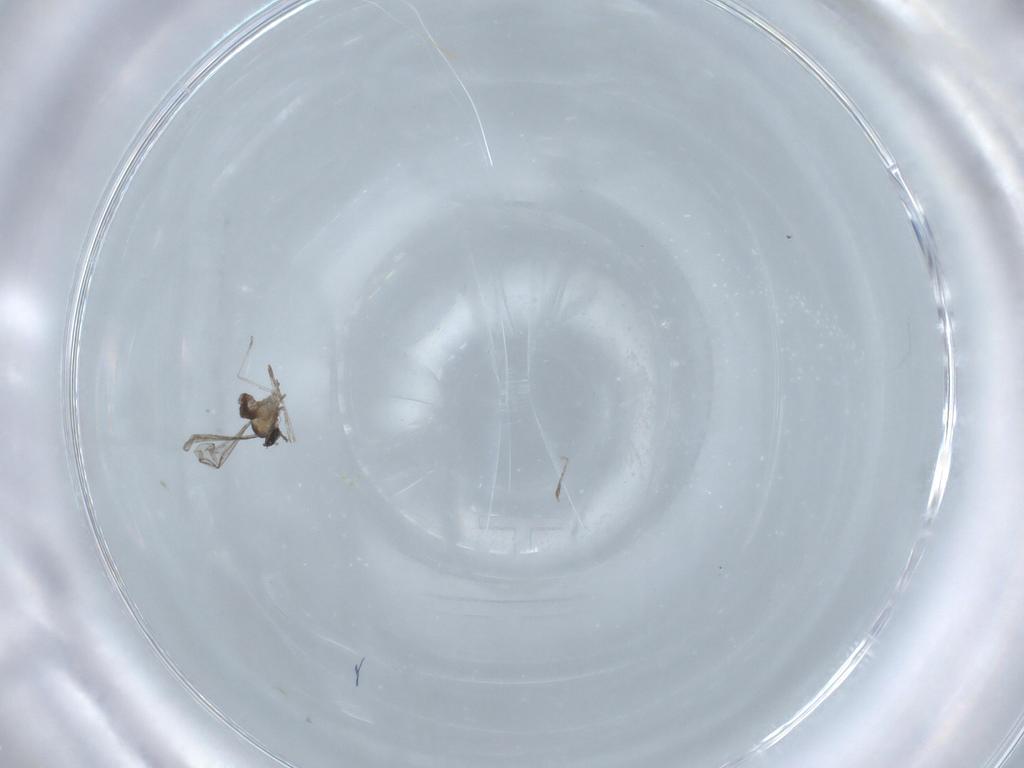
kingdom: Animalia
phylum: Arthropoda
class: Insecta
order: Diptera
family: Cecidomyiidae
